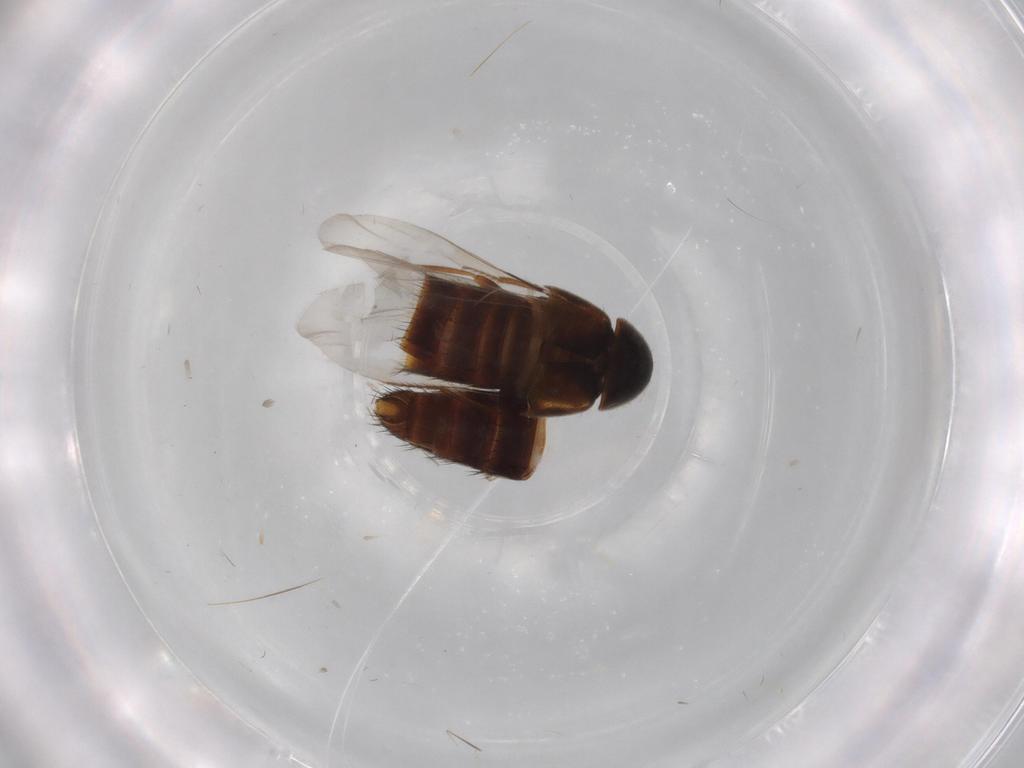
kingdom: Animalia
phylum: Arthropoda
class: Insecta
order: Coleoptera
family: Staphylinidae
